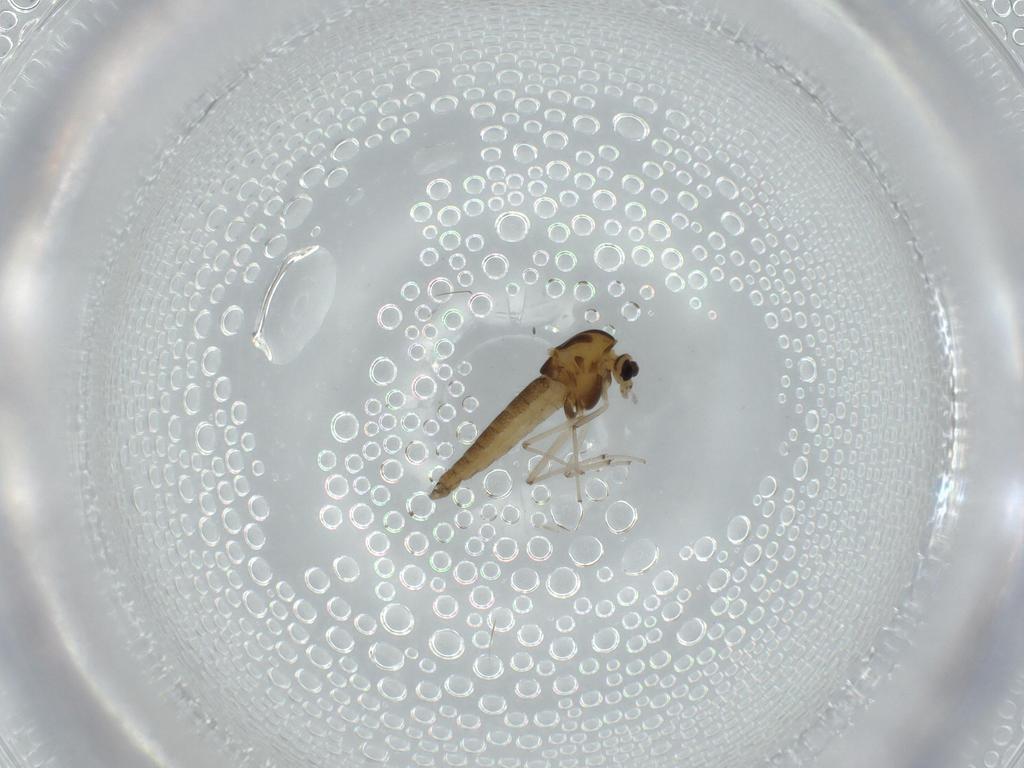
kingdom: Animalia
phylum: Arthropoda
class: Insecta
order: Diptera
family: Chironomidae
